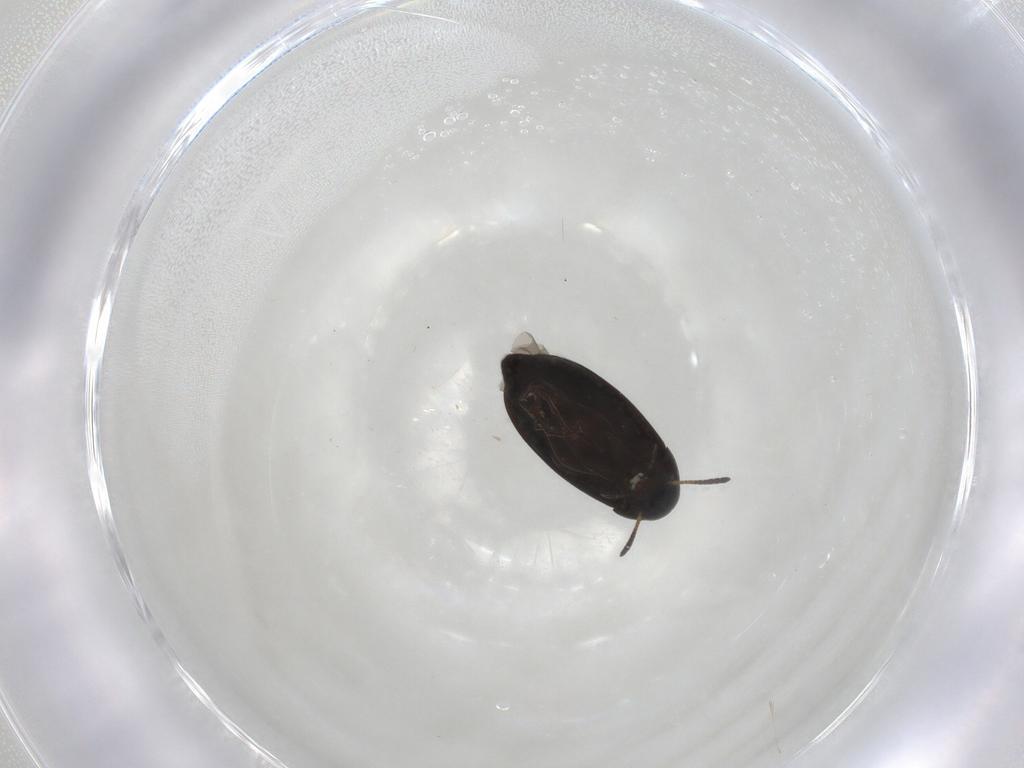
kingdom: Animalia
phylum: Arthropoda
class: Insecta
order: Coleoptera
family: Scraptiidae
